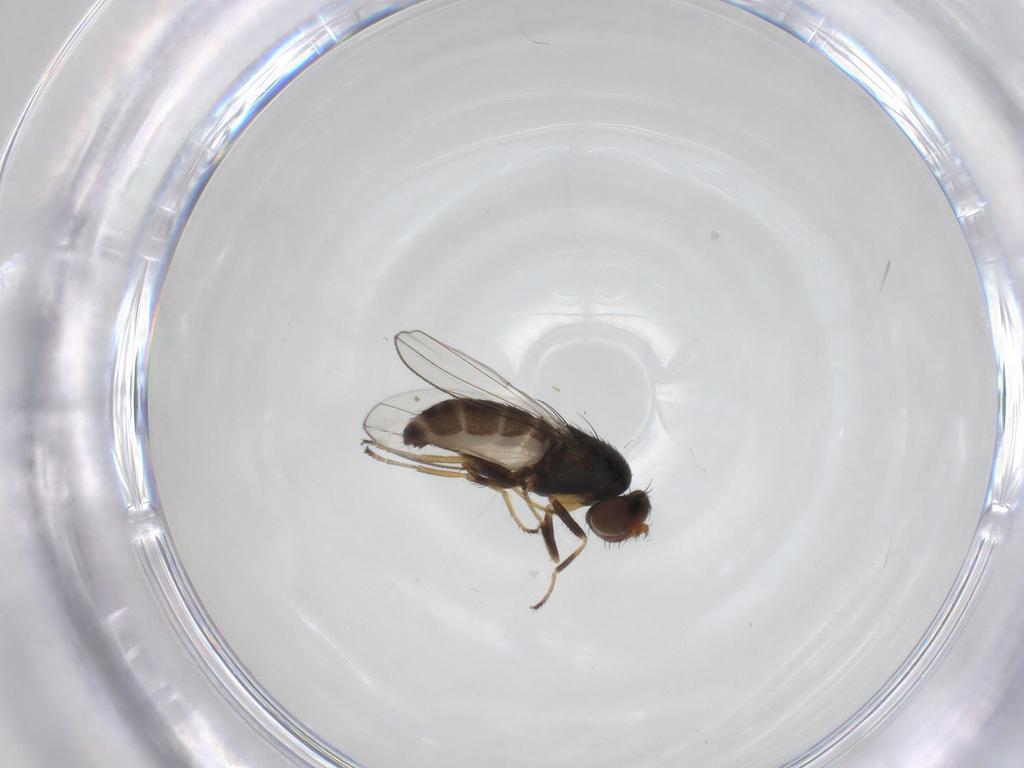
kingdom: Animalia
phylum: Arthropoda
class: Insecta
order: Diptera
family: Ephydridae
